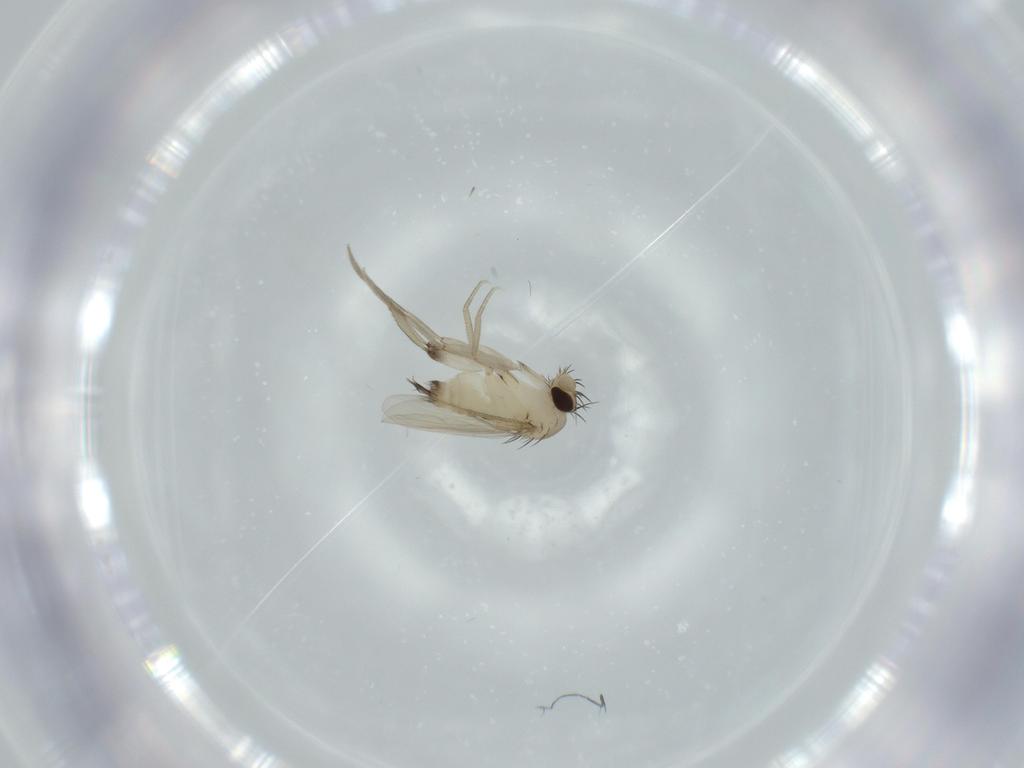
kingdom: Animalia
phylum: Arthropoda
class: Insecta
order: Diptera
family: Phoridae
